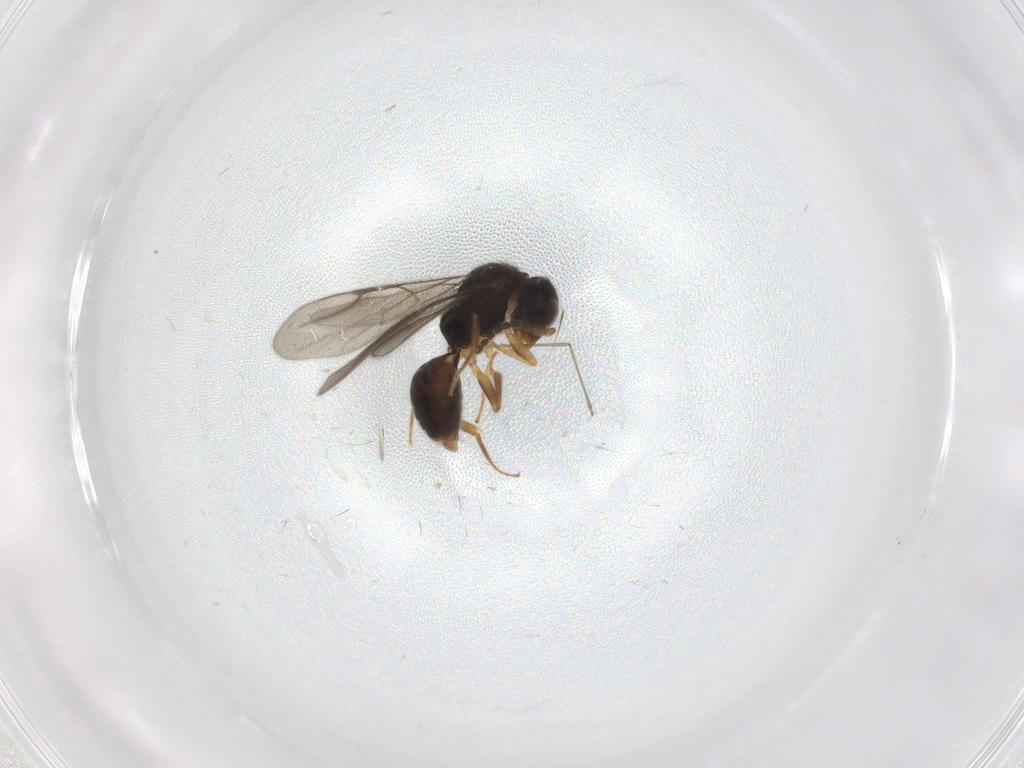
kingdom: Animalia
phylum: Arthropoda
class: Insecta
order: Hymenoptera
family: Bethylidae
